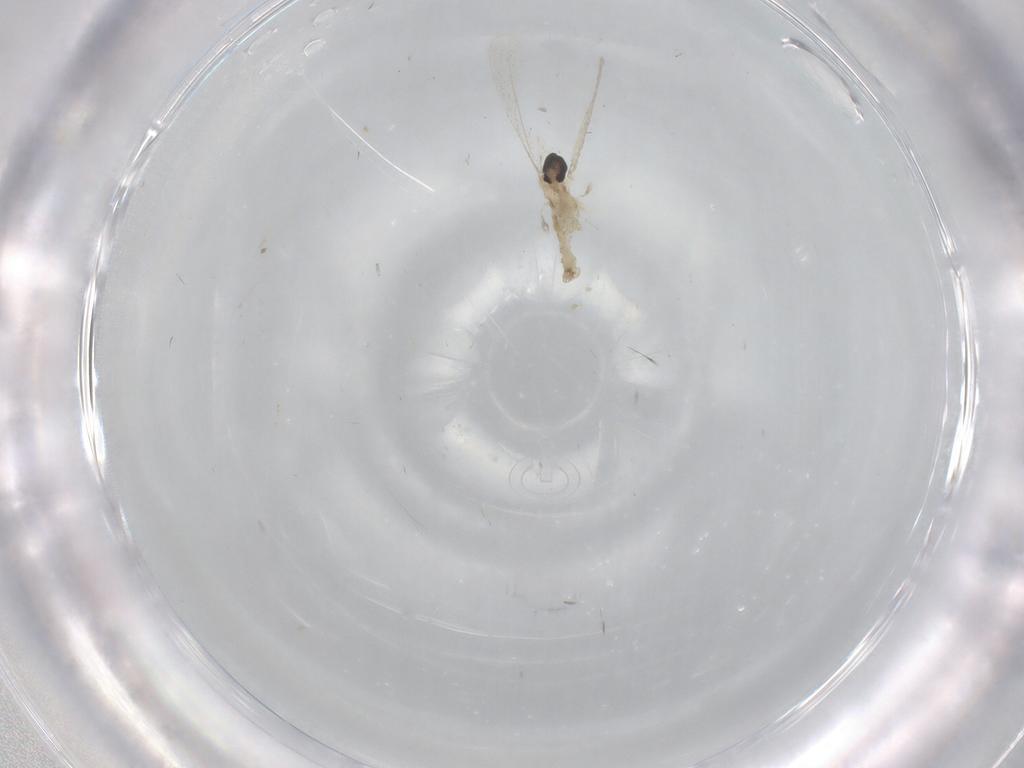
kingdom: Animalia
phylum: Arthropoda
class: Insecta
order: Diptera
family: Cecidomyiidae
